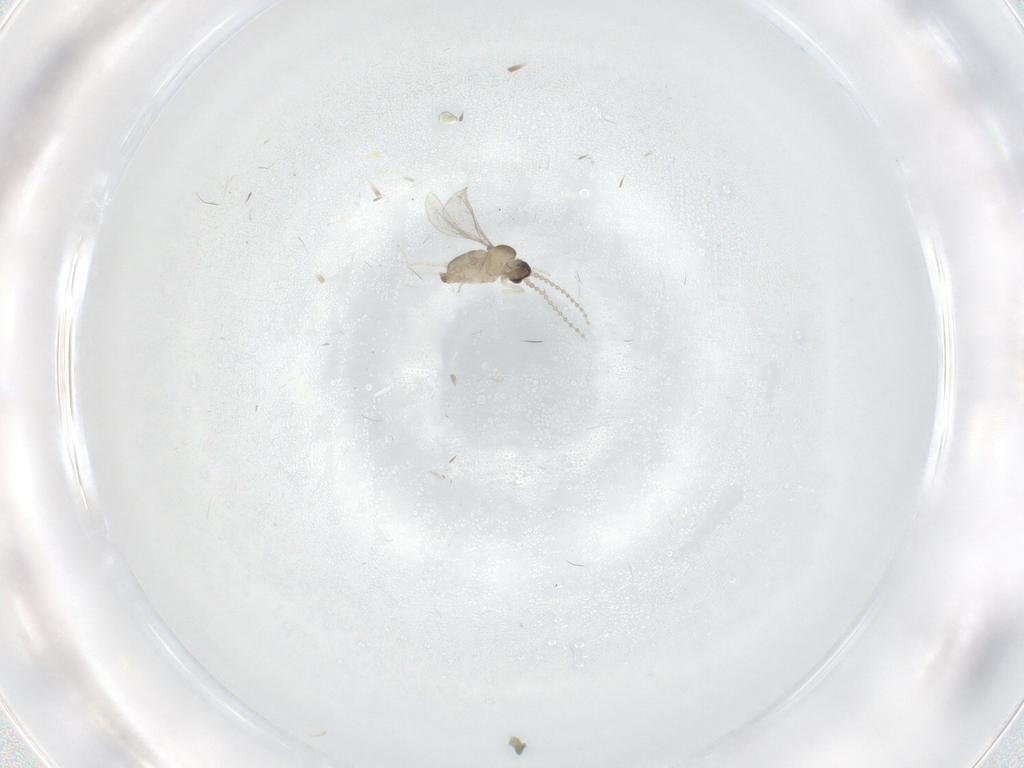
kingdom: Animalia
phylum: Arthropoda
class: Insecta
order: Diptera
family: Cecidomyiidae
